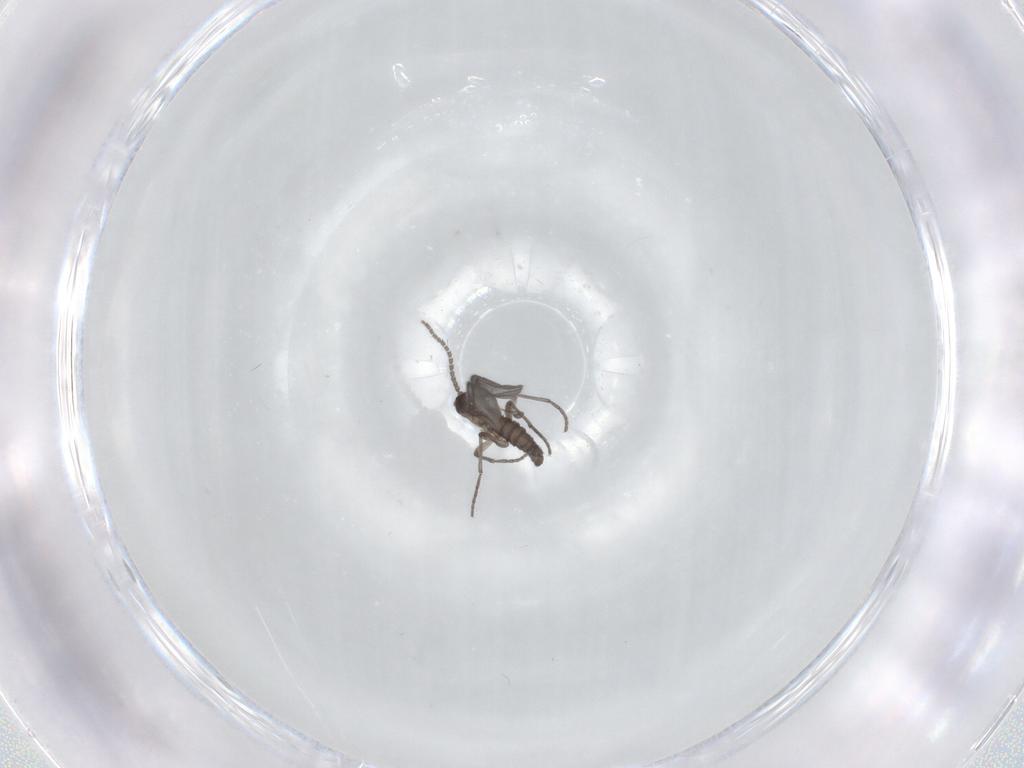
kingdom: Animalia
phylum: Arthropoda
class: Insecta
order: Diptera
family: Sciaridae
